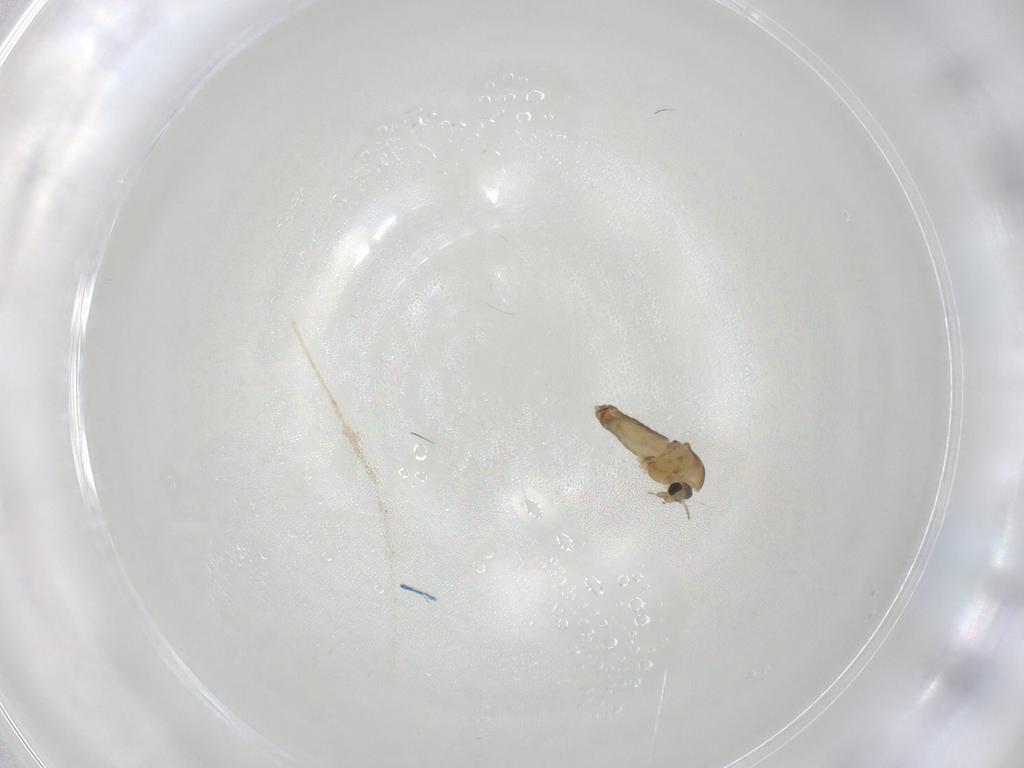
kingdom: Animalia
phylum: Arthropoda
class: Insecta
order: Diptera
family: Chironomidae
